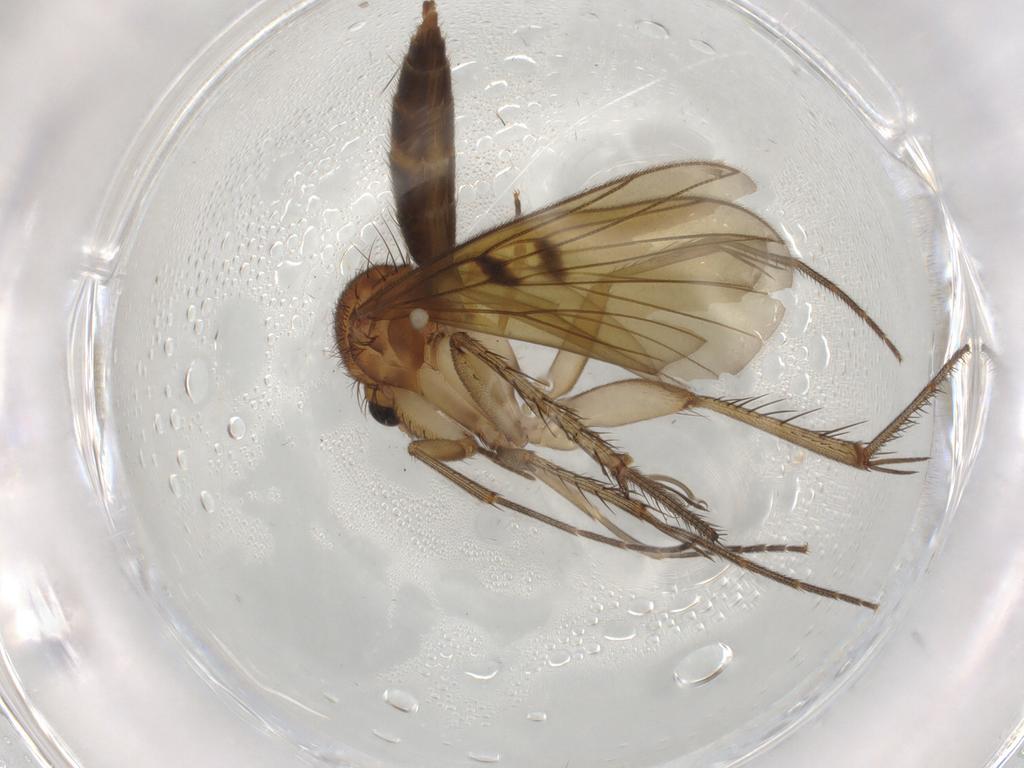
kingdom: Animalia
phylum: Arthropoda
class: Insecta
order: Diptera
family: Mycetophilidae
